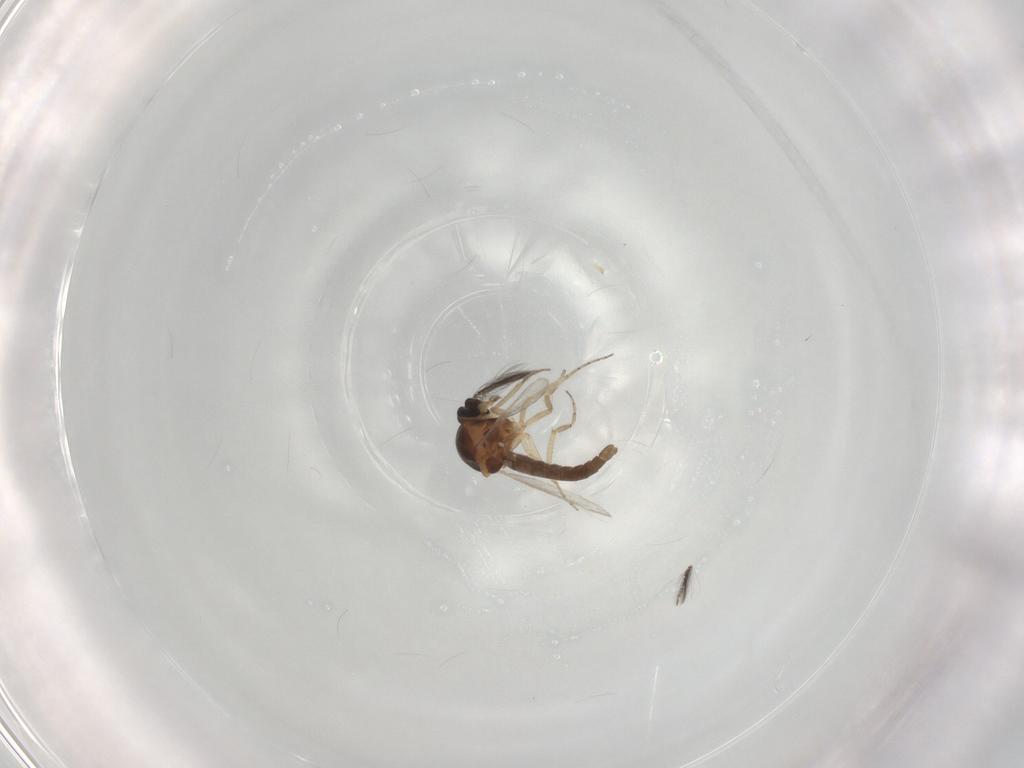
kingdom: Animalia
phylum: Arthropoda
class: Insecta
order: Diptera
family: Ceratopogonidae
